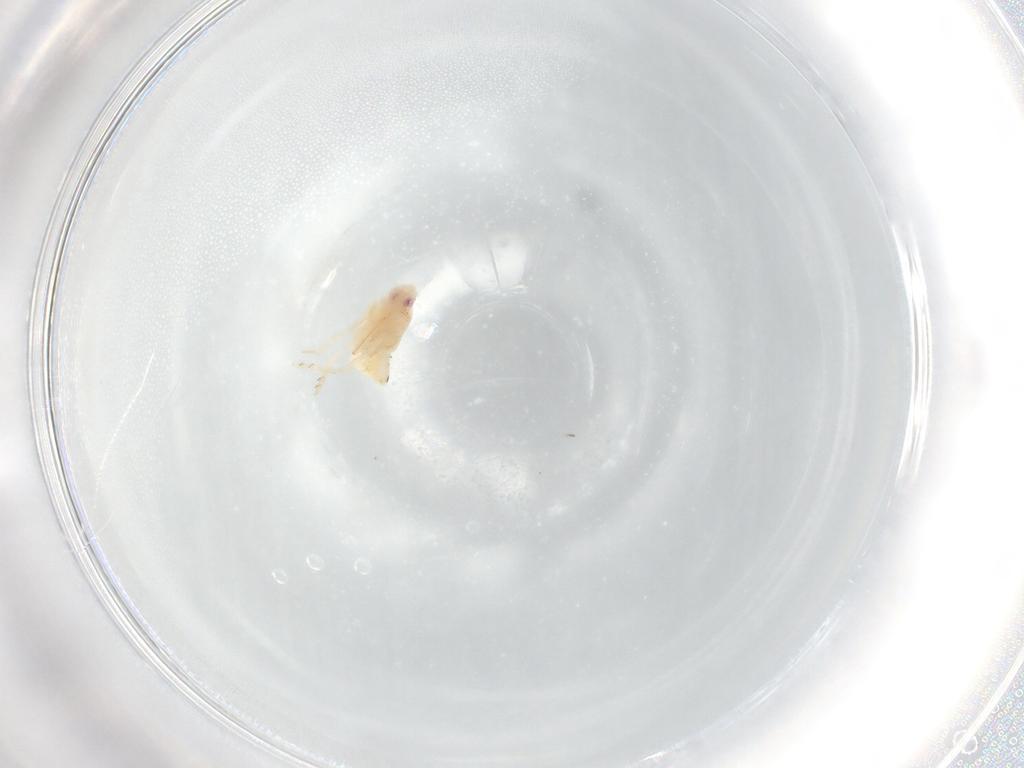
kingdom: Animalia
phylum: Arthropoda
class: Insecta
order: Hemiptera
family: Flatidae
